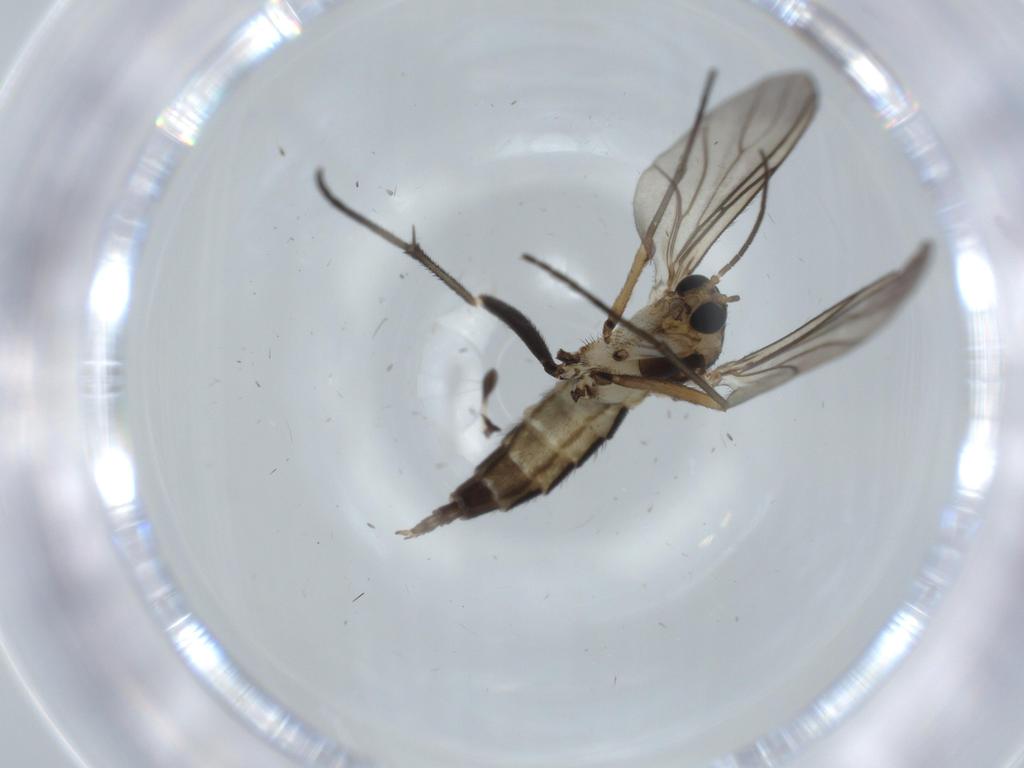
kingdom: Animalia
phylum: Arthropoda
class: Insecta
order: Diptera
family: Sciaridae
